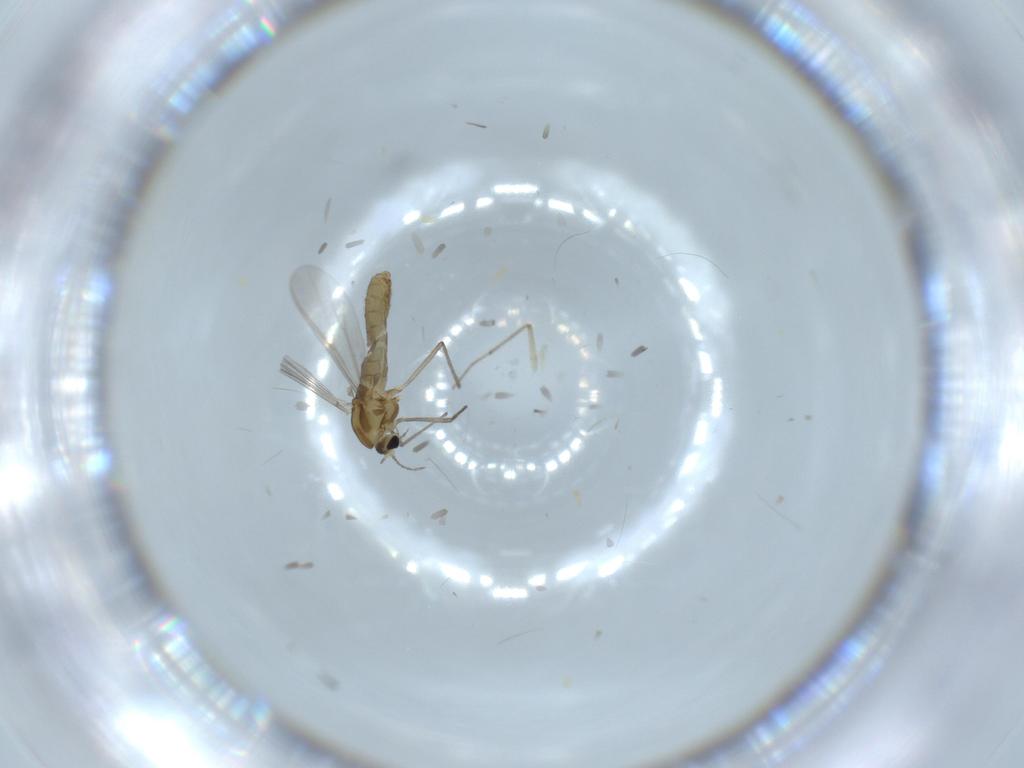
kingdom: Animalia
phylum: Arthropoda
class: Insecta
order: Diptera
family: Chironomidae
